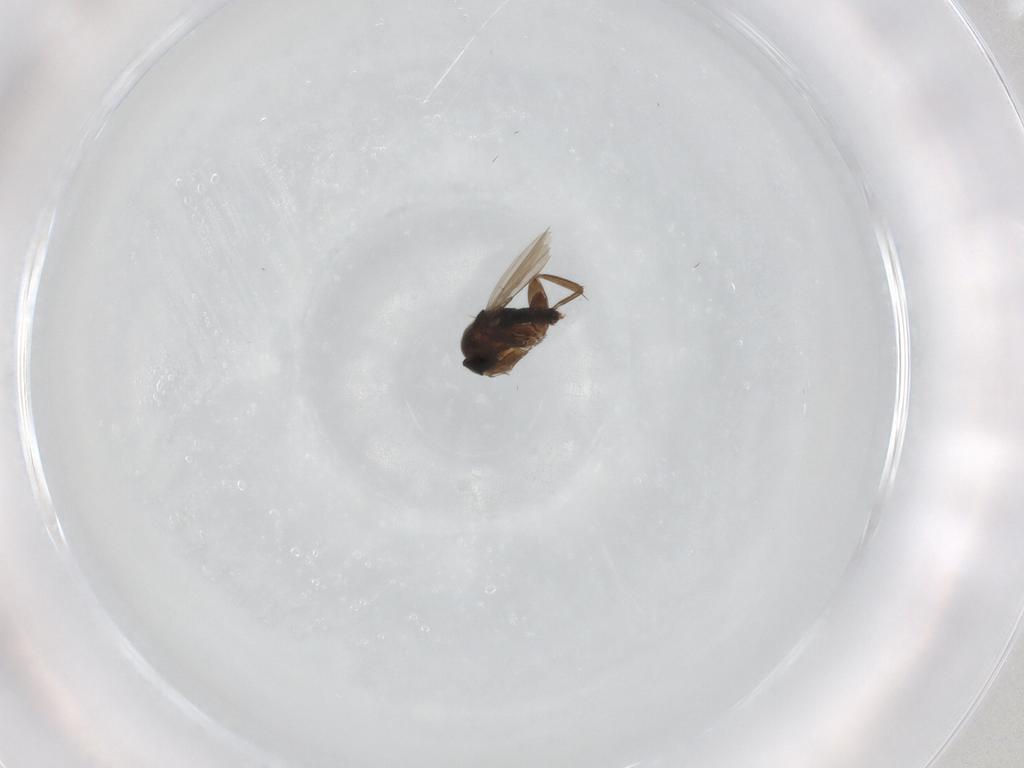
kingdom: Animalia
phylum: Arthropoda
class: Insecta
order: Diptera
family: Phoridae
